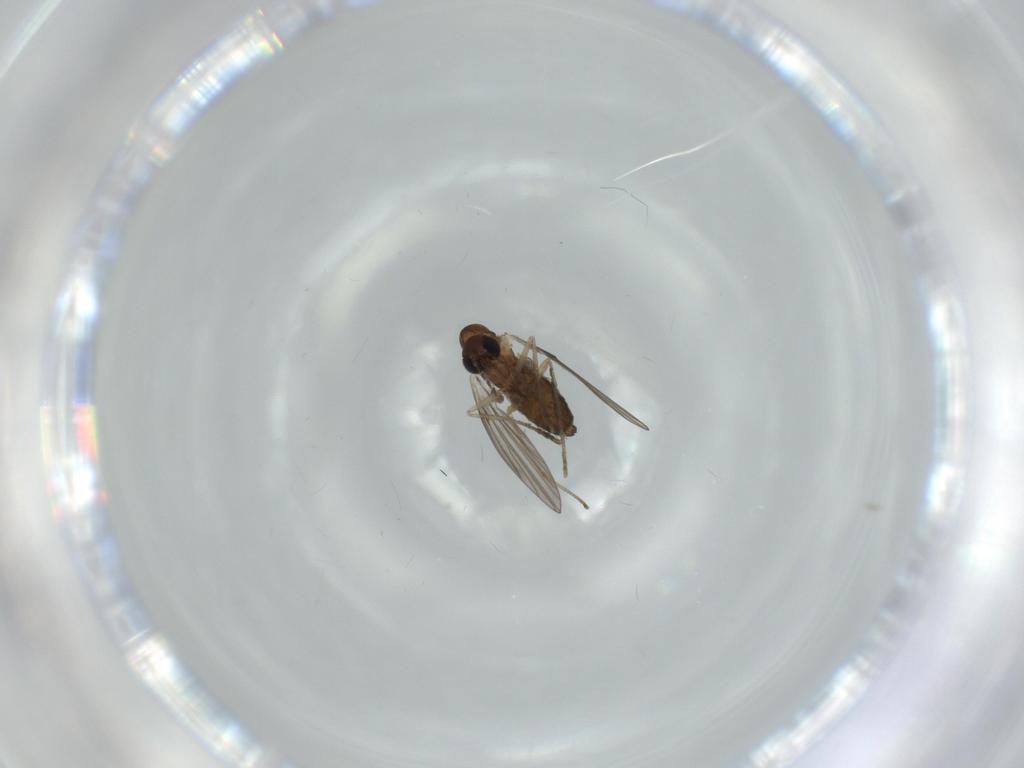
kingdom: Animalia
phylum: Arthropoda
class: Insecta
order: Diptera
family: Psychodidae
